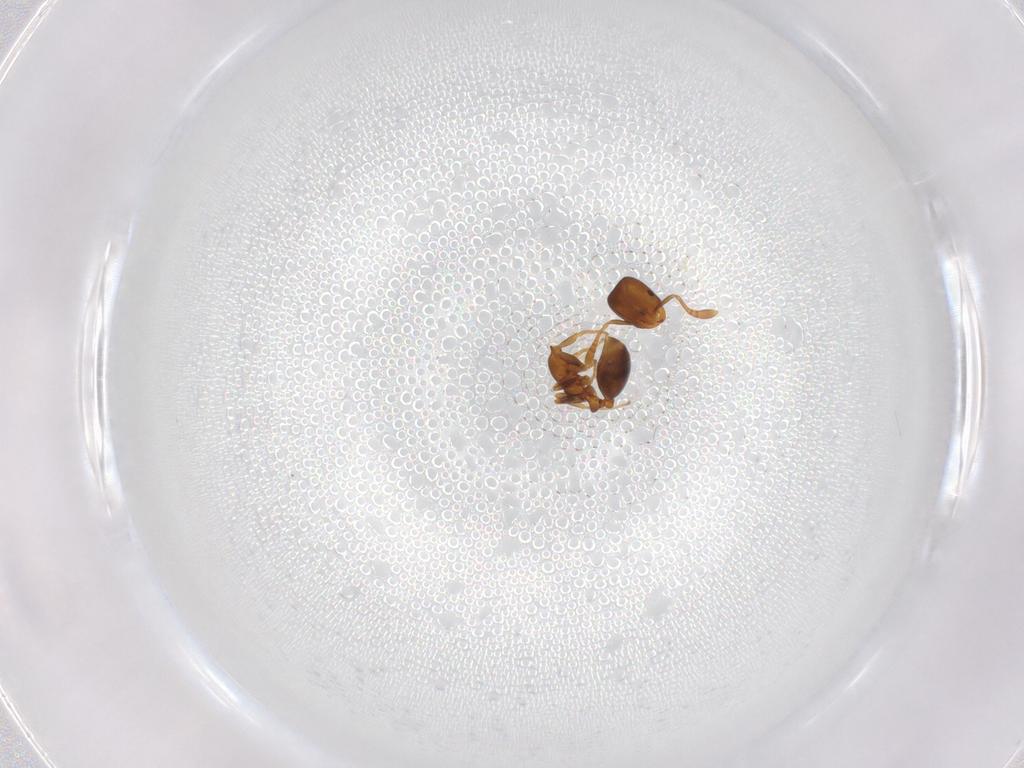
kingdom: Animalia
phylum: Arthropoda
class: Insecta
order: Hymenoptera
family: Formicidae
